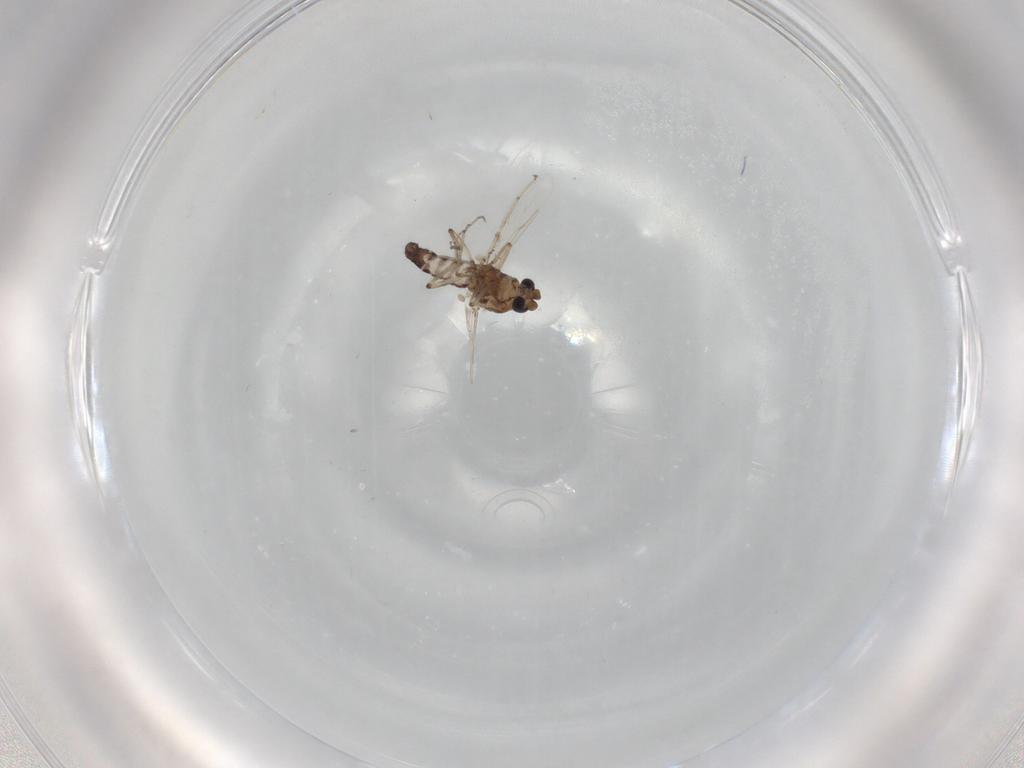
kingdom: Animalia
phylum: Arthropoda
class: Insecta
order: Diptera
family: Ceratopogonidae
